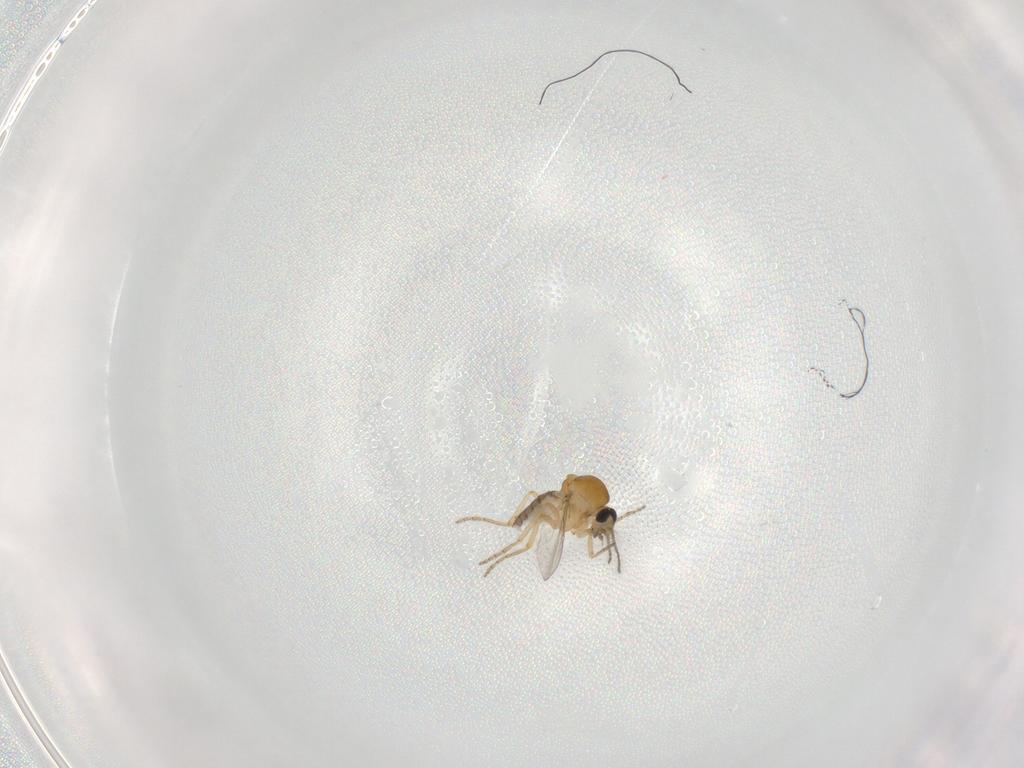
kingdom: Animalia
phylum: Arthropoda
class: Insecta
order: Diptera
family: Ceratopogonidae
